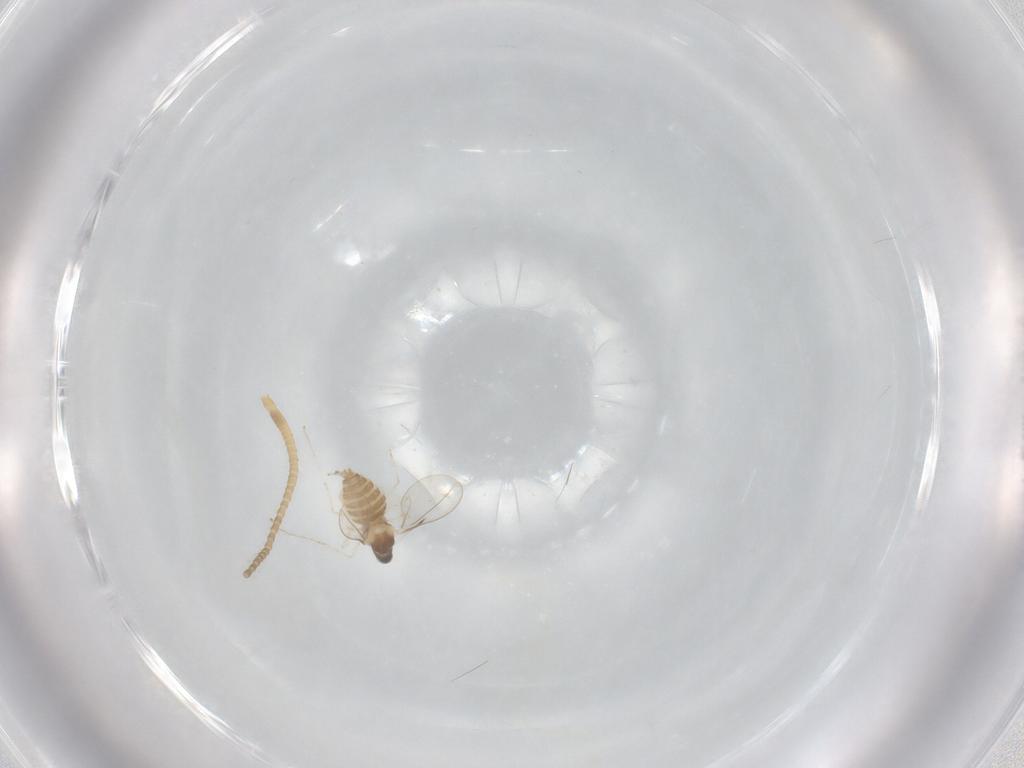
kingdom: Animalia
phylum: Arthropoda
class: Insecta
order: Diptera
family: Cecidomyiidae
